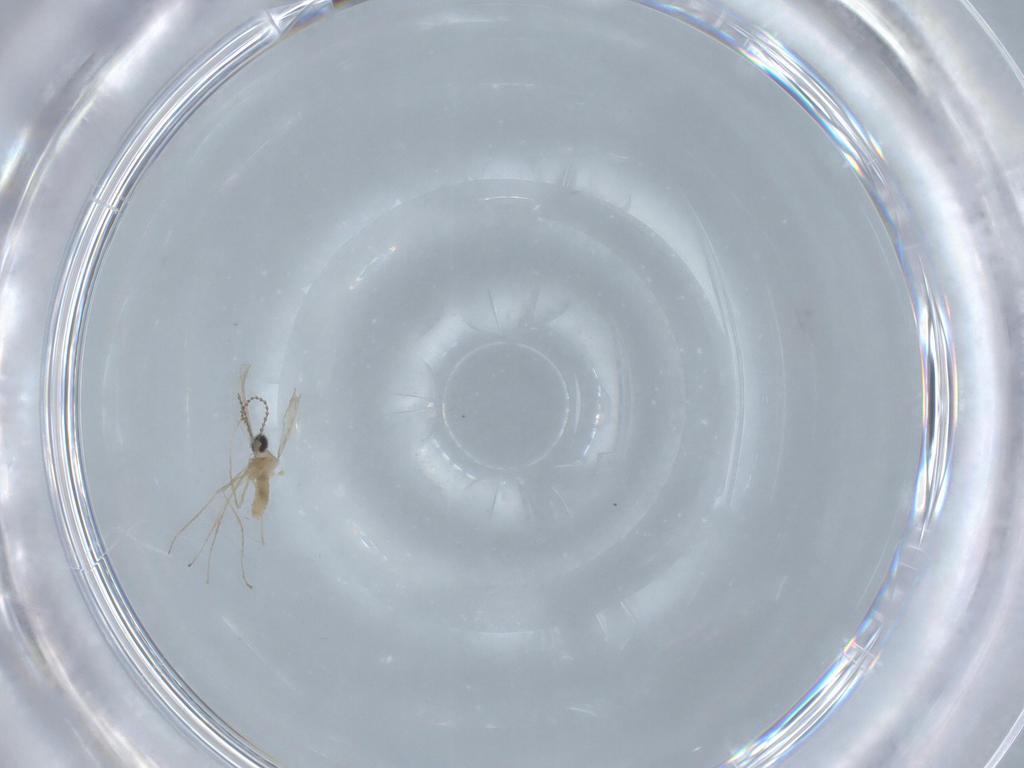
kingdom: Animalia
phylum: Arthropoda
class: Insecta
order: Diptera
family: Cecidomyiidae
